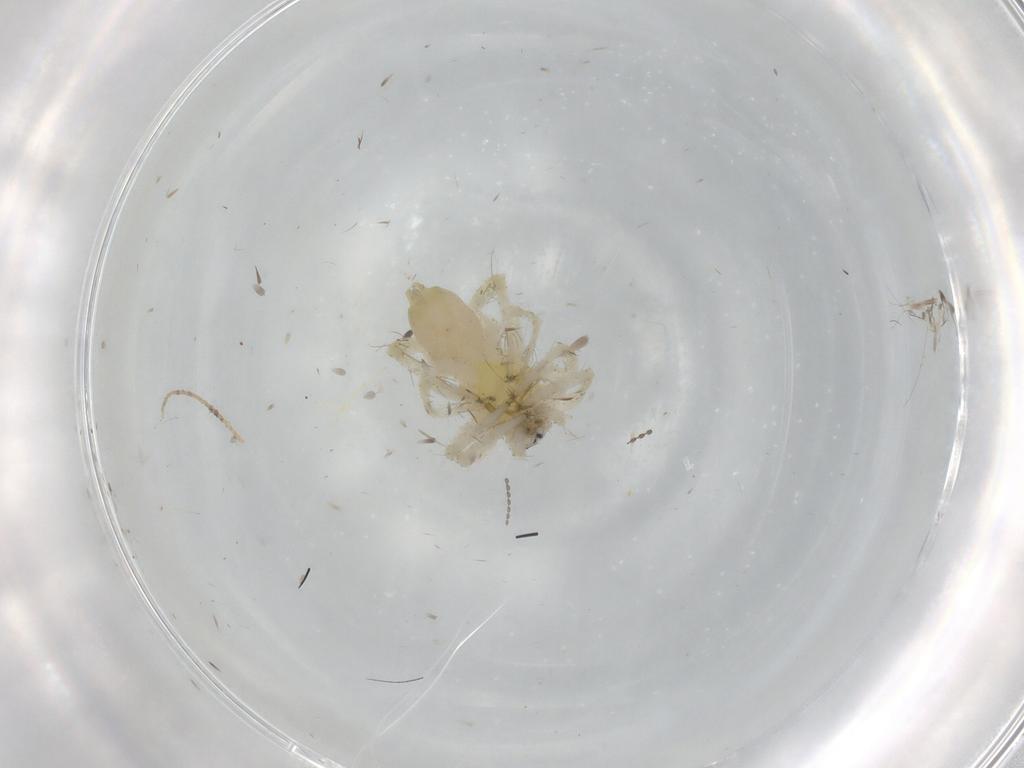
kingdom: Animalia
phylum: Arthropoda
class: Arachnida
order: Araneae
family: Anyphaenidae
